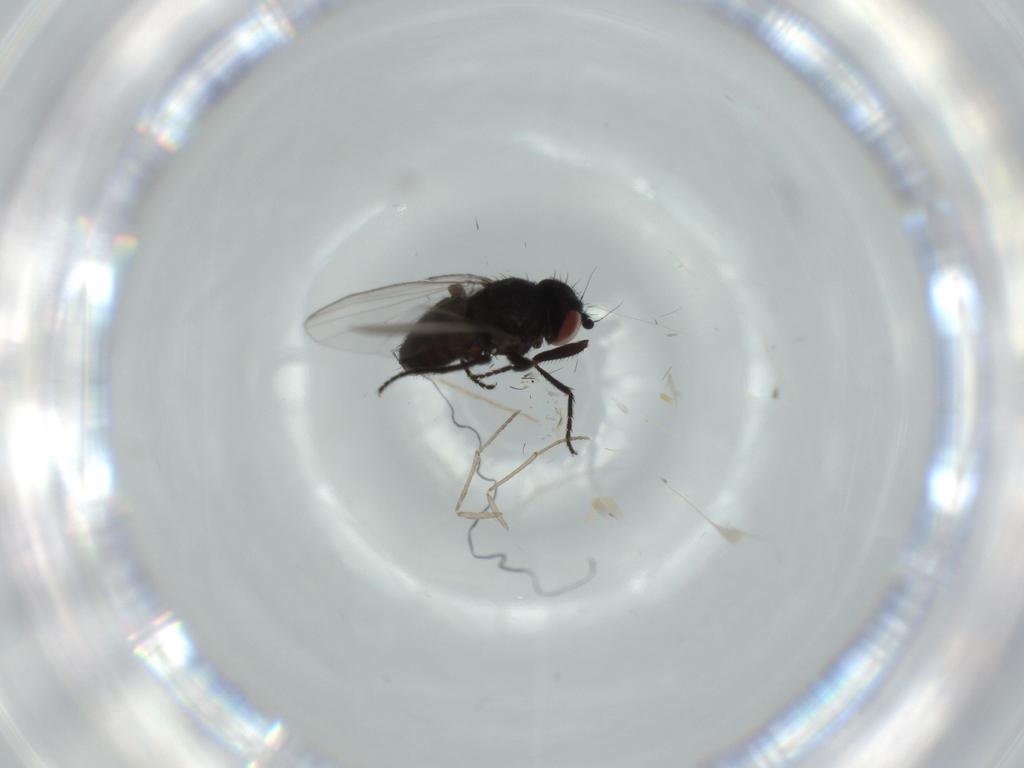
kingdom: Animalia
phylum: Arthropoda
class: Insecta
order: Diptera
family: Milichiidae
